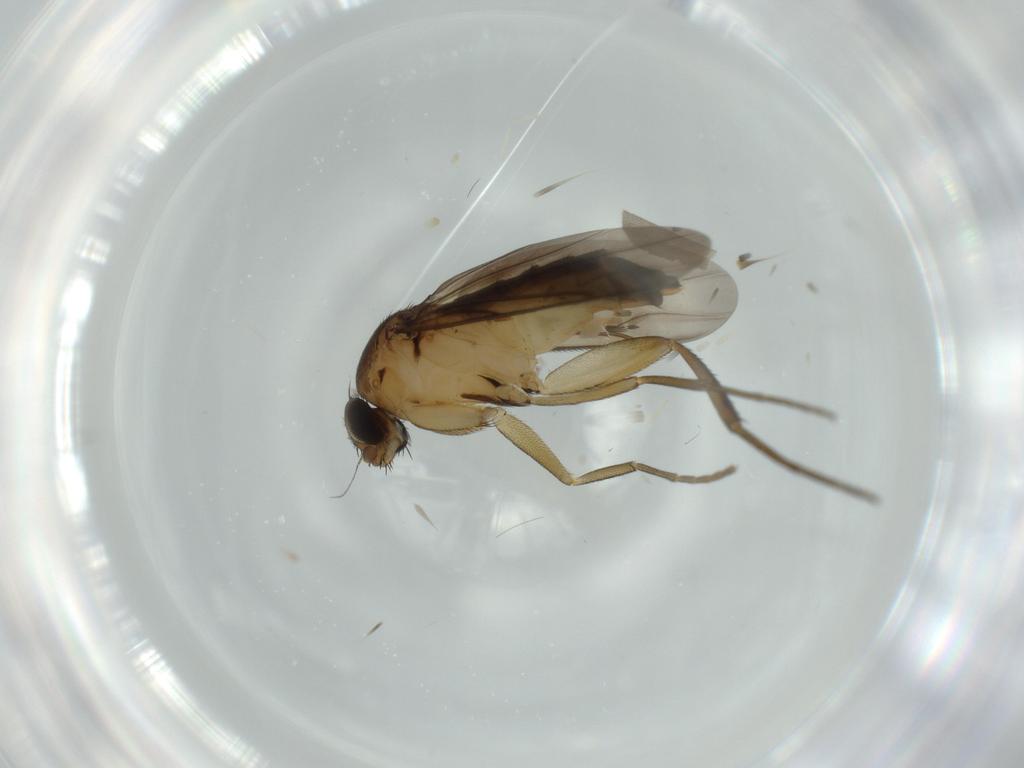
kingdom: Animalia
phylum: Arthropoda
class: Insecta
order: Diptera
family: Phoridae
